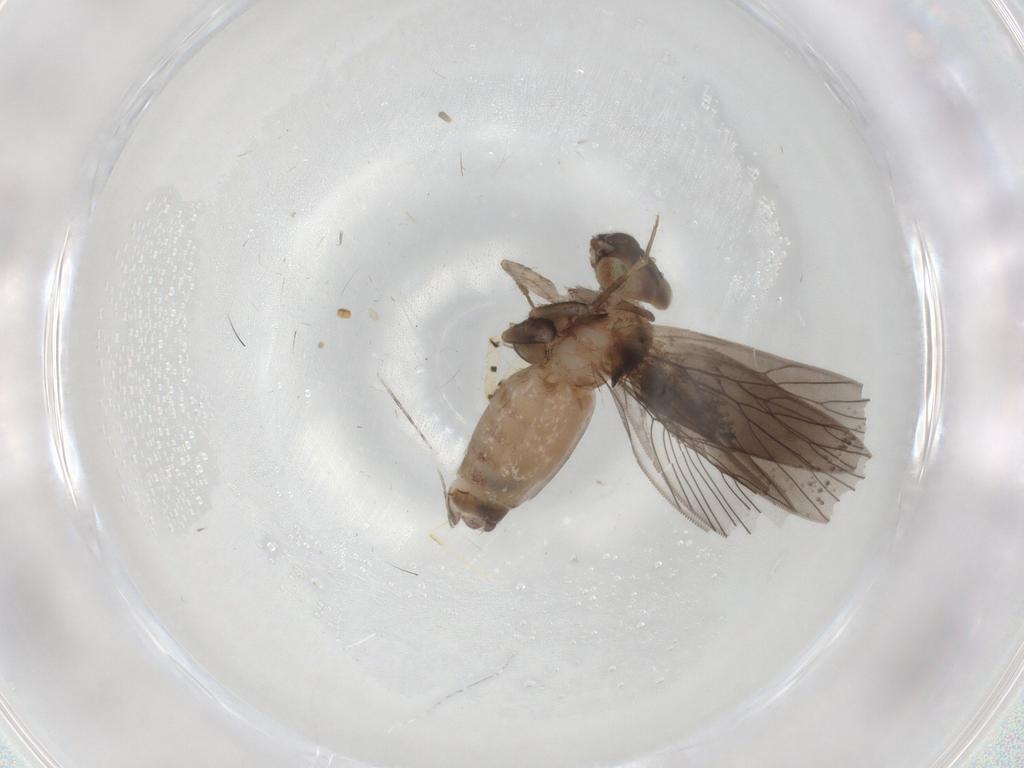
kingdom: Animalia
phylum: Arthropoda
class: Insecta
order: Psocodea
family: Lepidopsocidae
